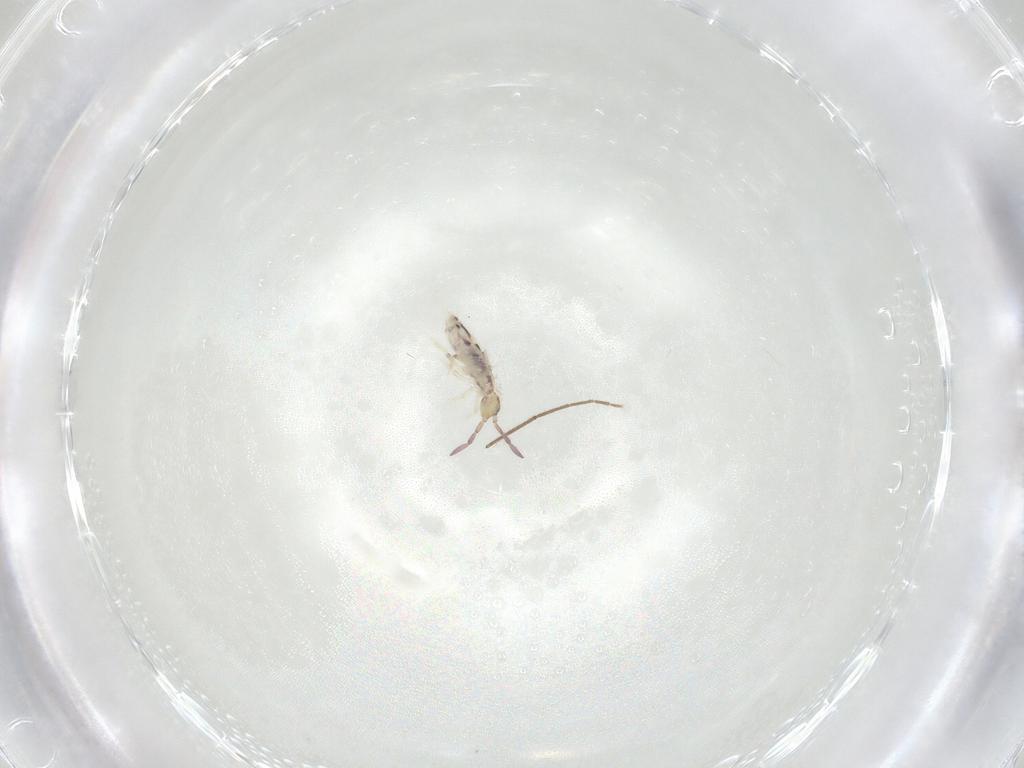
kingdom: Animalia
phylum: Arthropoda
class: Collembola
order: Entomobryomorpha
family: Entomobryidae
